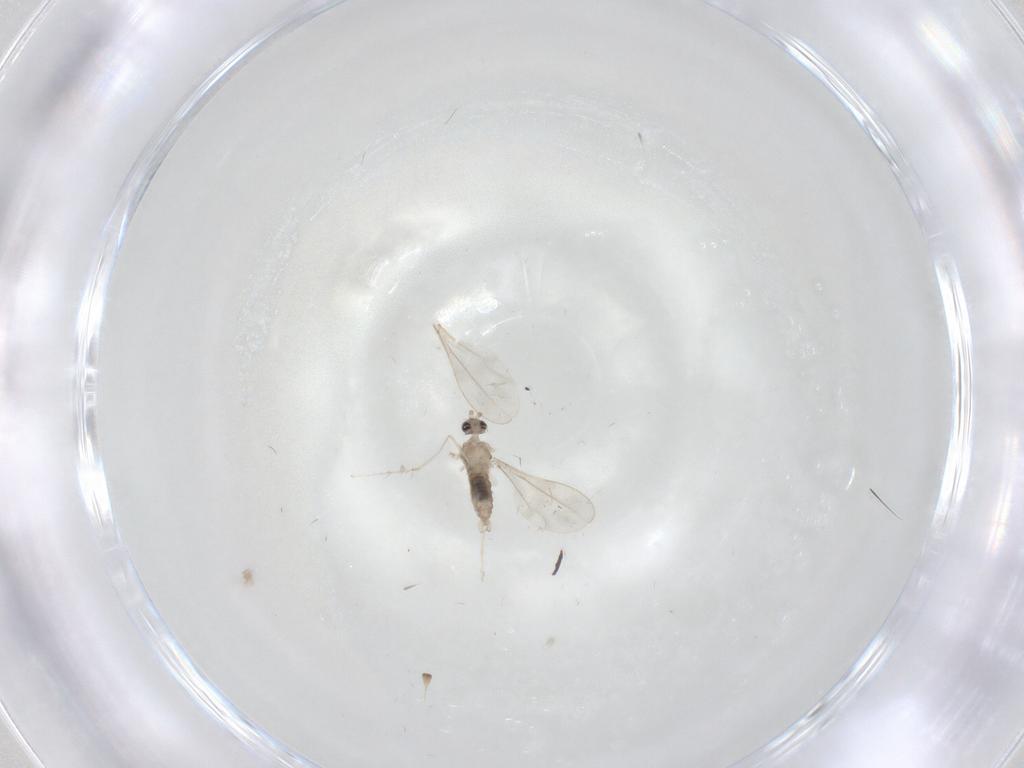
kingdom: Animalia
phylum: Arthropoda
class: Insecta
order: Diptera
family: Cecidomyiidae
